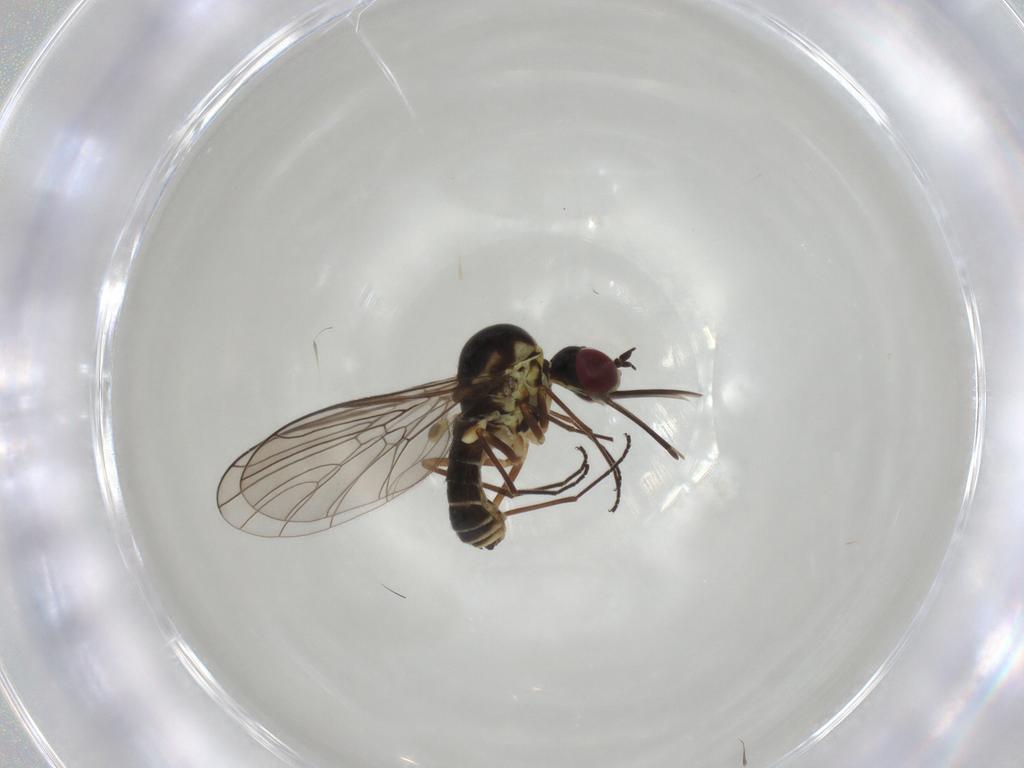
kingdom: Animalia
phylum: Arthropoda
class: Insecta
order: Diptera
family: Bombyliidae
